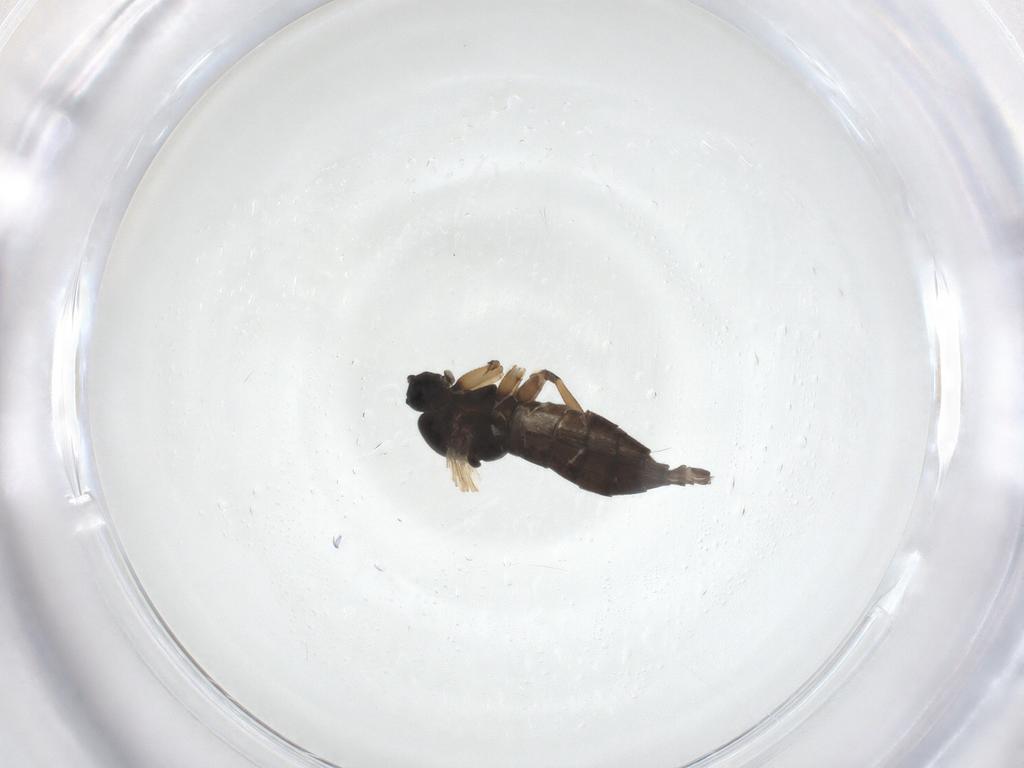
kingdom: Animalia
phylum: Arthropoda
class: Insecta
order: Diptera
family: Sciaridae
